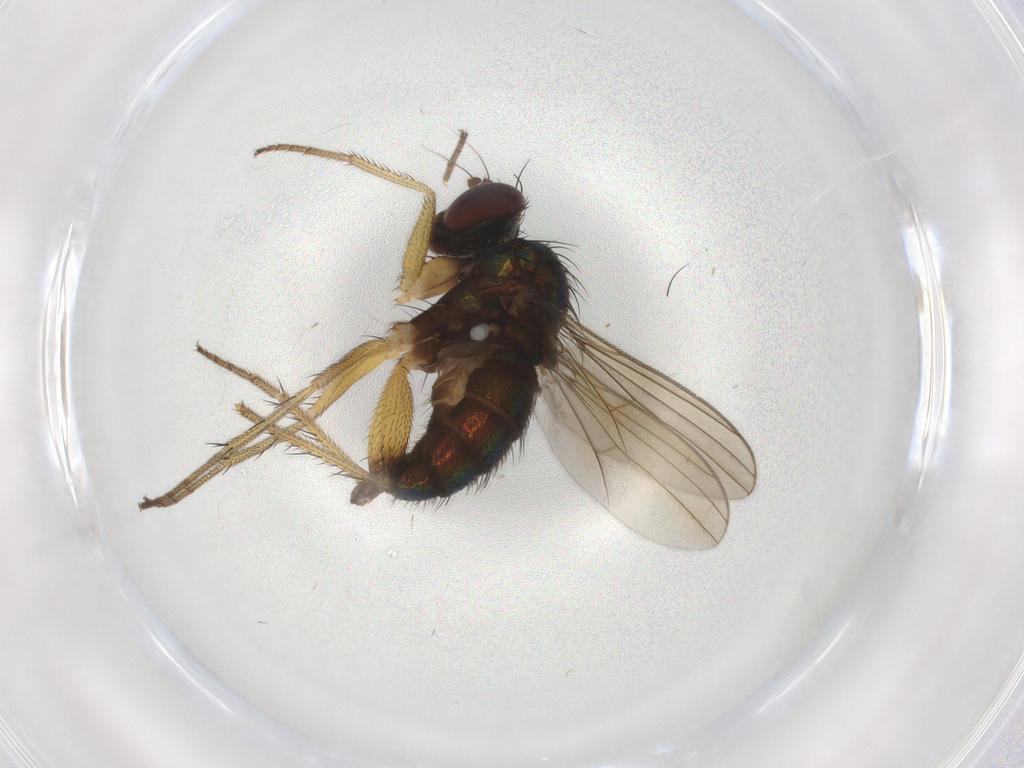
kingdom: Animalia
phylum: Arthropoda
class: Insecta
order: Diptera
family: Dolichopodidae
